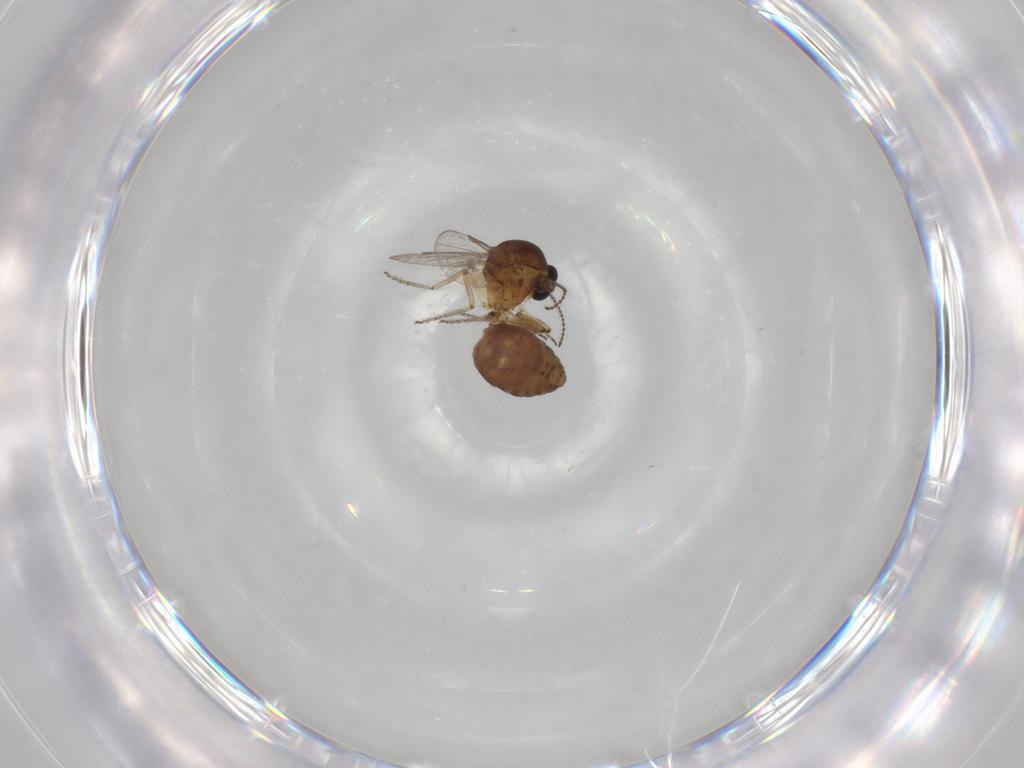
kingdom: Animalia
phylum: Arthropoda
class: Insecta
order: Diptera
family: Ceratopogonidae
